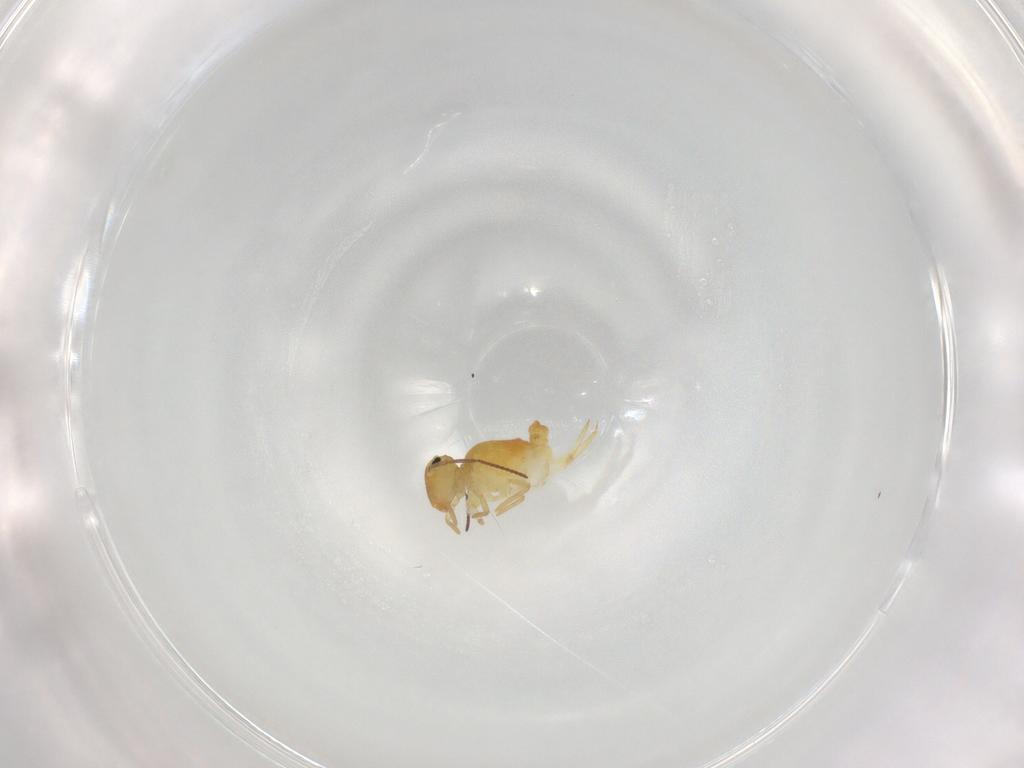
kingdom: Animalia
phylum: Arthropoda
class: Collembola
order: Symphypleona
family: Bourletiellidae
